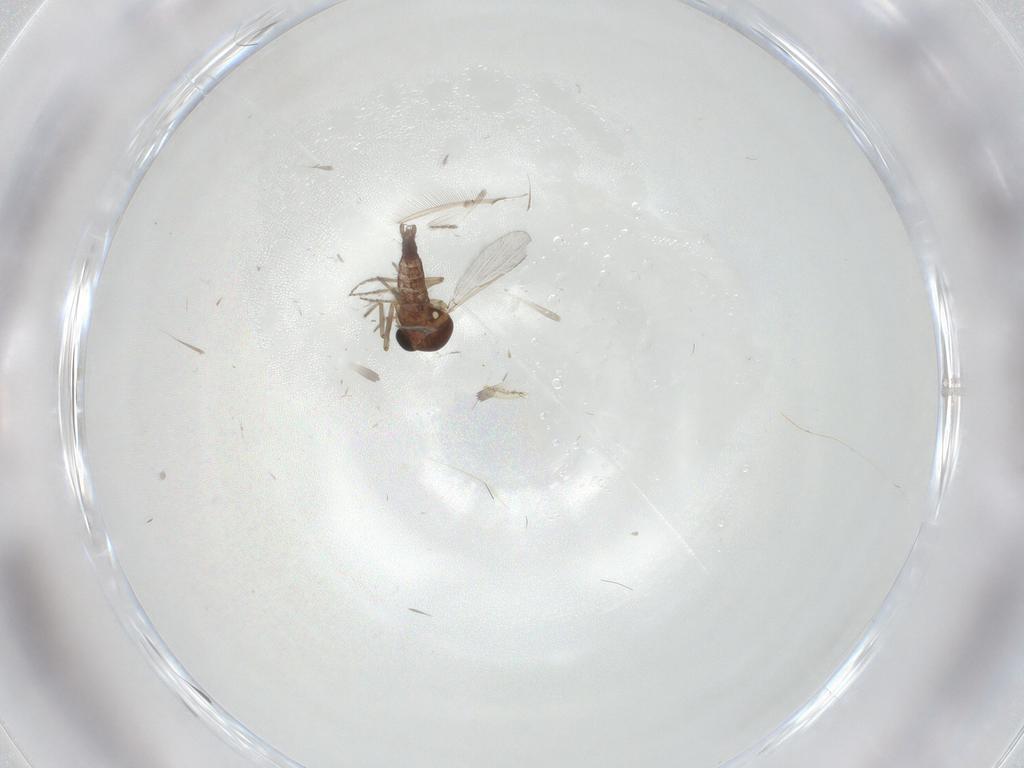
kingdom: Animalia
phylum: Arthropoda
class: Insecta
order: Diptera
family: Ceratopogonidae
